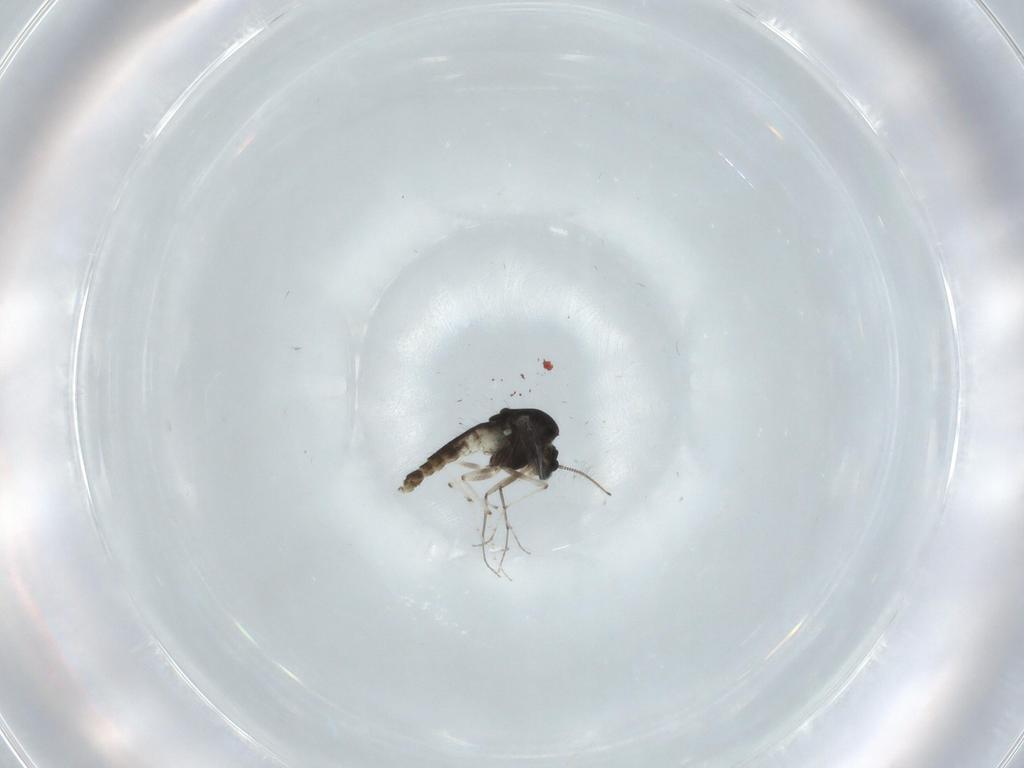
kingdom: Animalia
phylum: Arthropoda
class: Insecta
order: Diptera
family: Chironomidae
